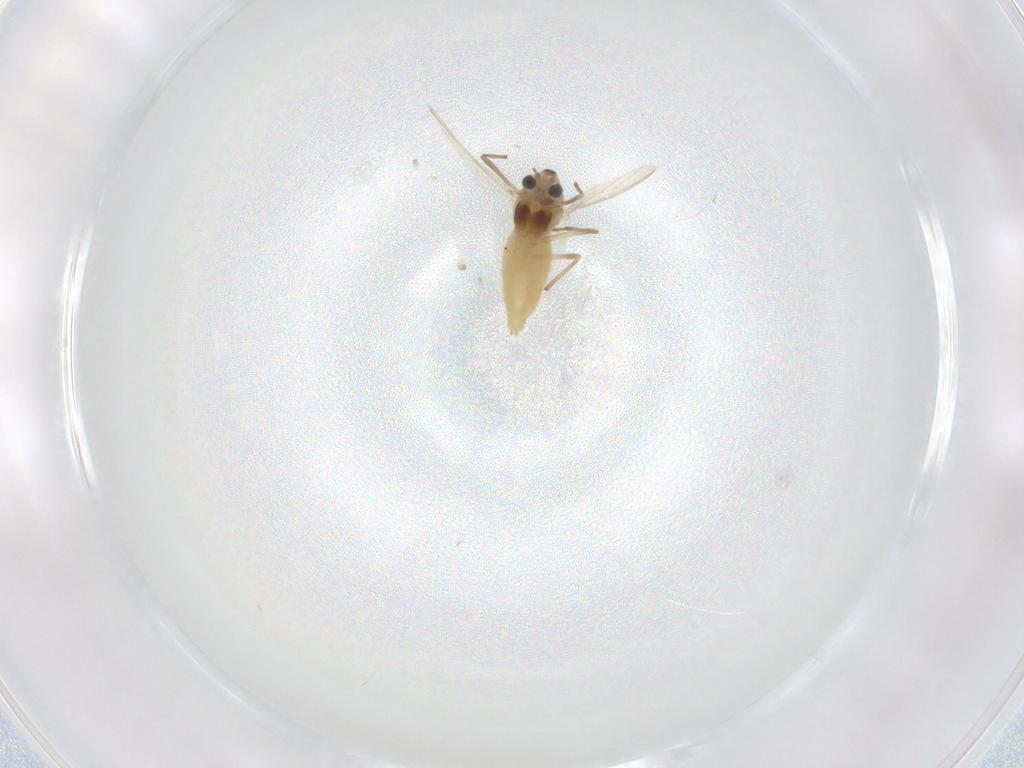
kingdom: Animalia
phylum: Arthropoda
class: Insecta
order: Diptera
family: Chironomidae
